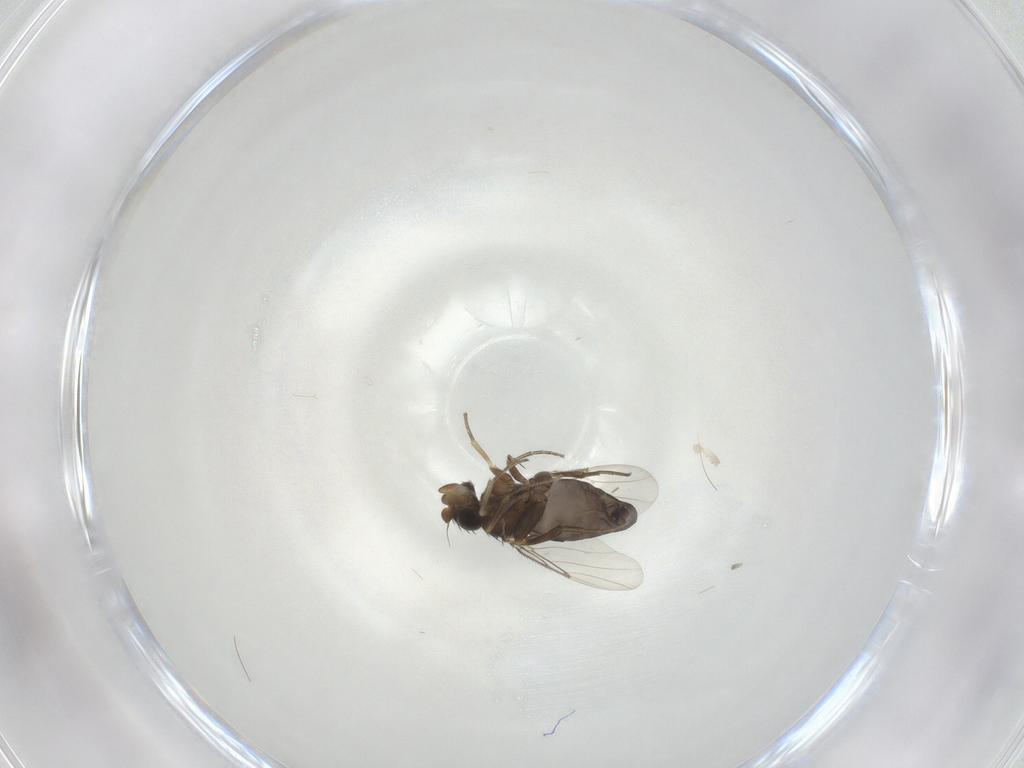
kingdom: Animalia
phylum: Arthropoda
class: Insecta
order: Diptera
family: Phoridae
